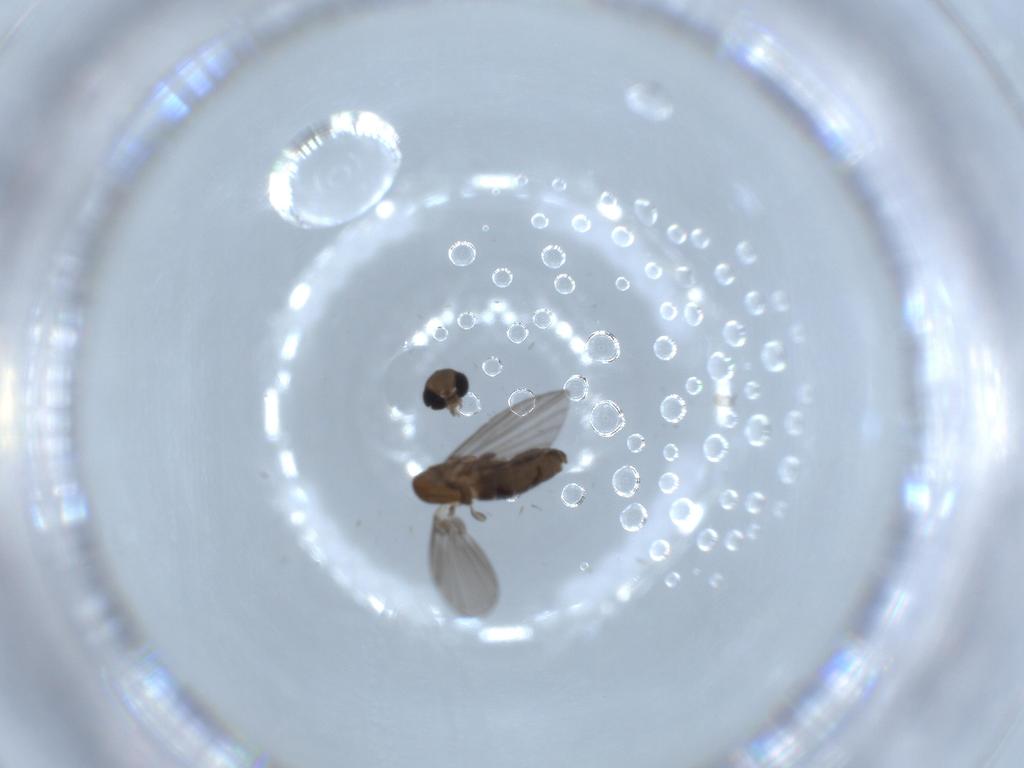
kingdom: Animalia
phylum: Arthropoda
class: Insecta
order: Diptera
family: Psychodidae
